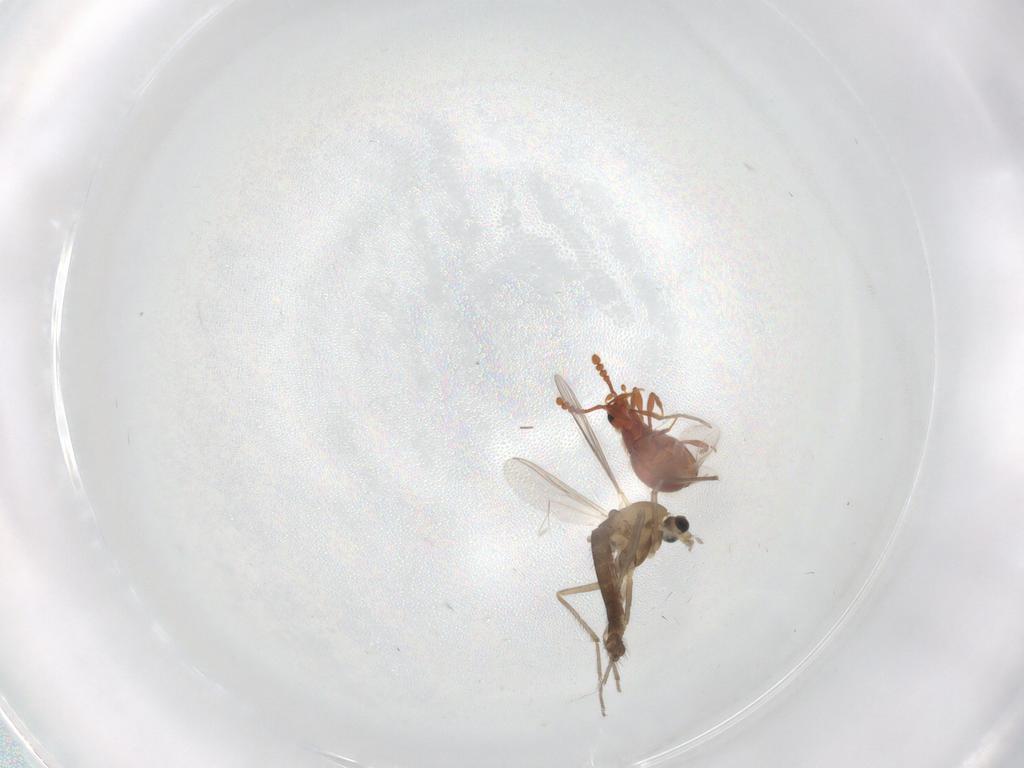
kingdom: Animalia
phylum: Arthropoda
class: Insecta
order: Diptera
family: Chironomidae
